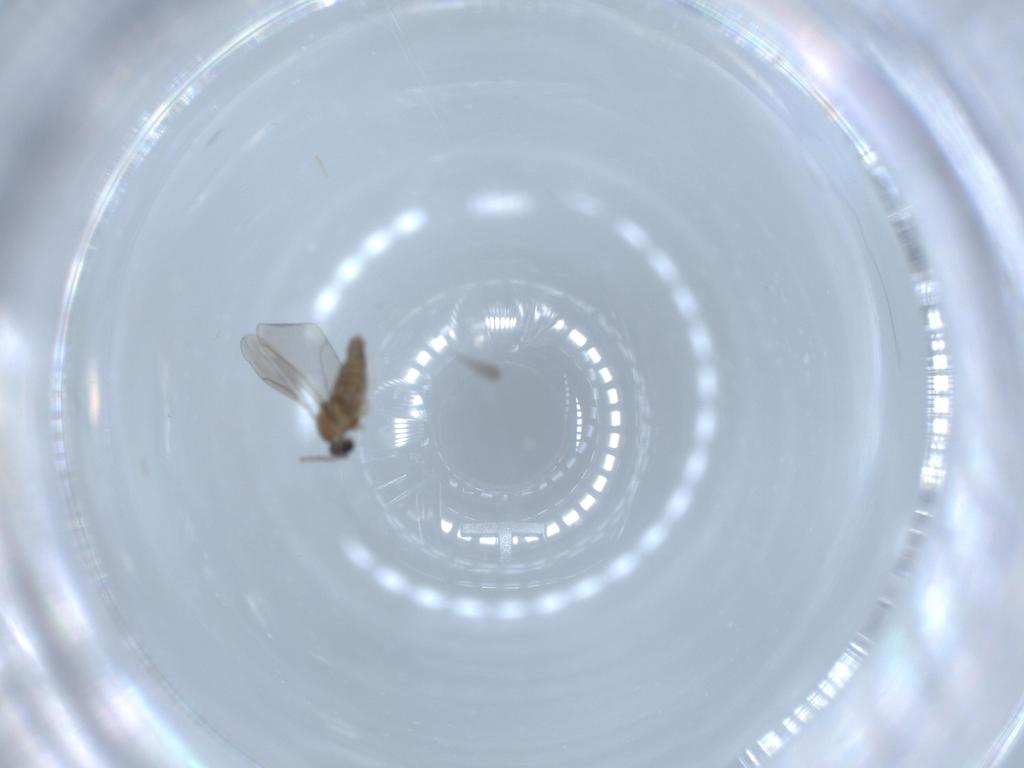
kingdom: Animalia
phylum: Arthropoda
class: Insecta
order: Diptera
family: Cecidomyiidae
